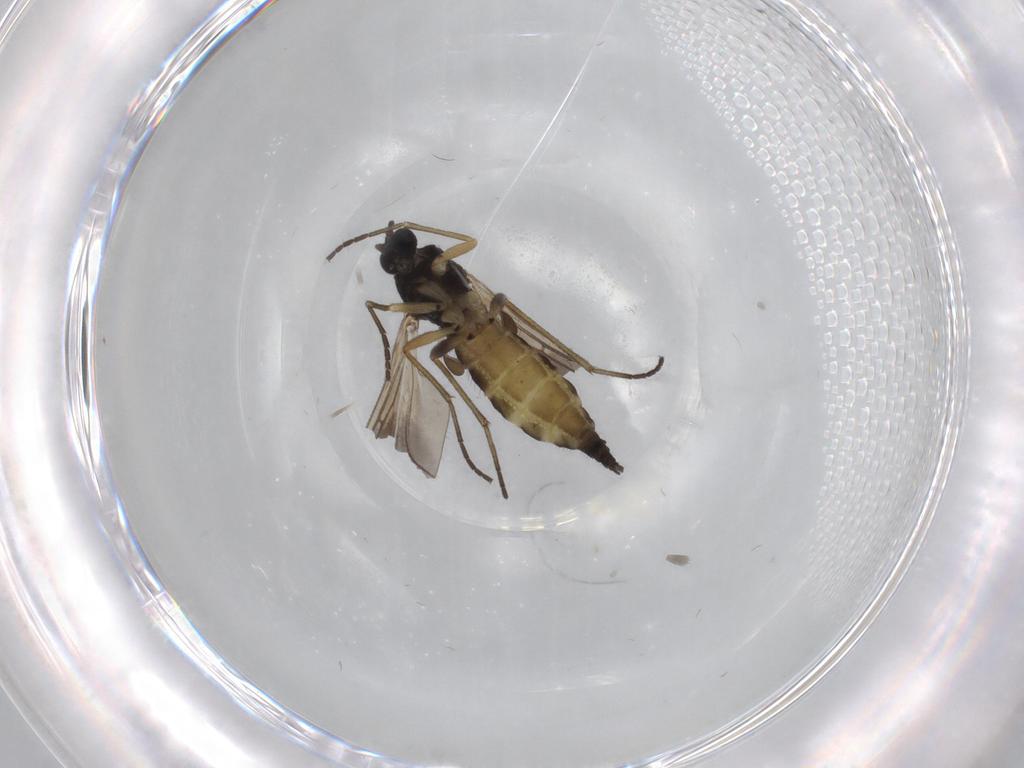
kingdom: Animalia
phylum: Arthropoda
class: Insecta
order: Diptera
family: Sciaridae
